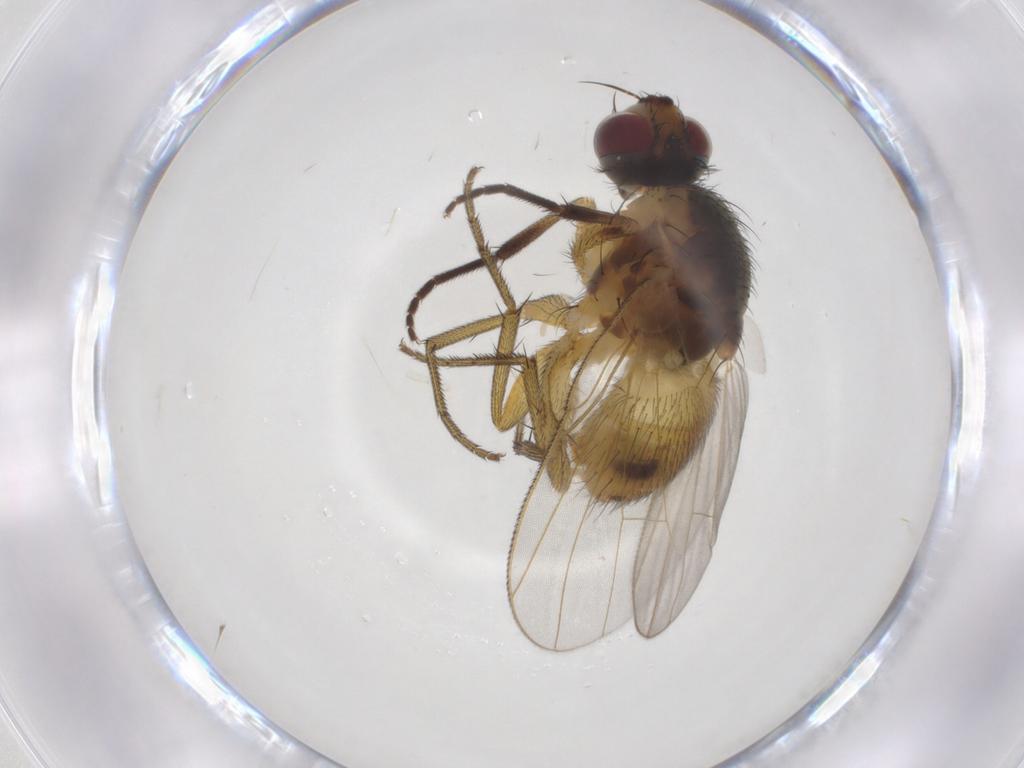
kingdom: Animalia
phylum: Arthropoda
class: Insecta
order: Diptera
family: Muscidae
